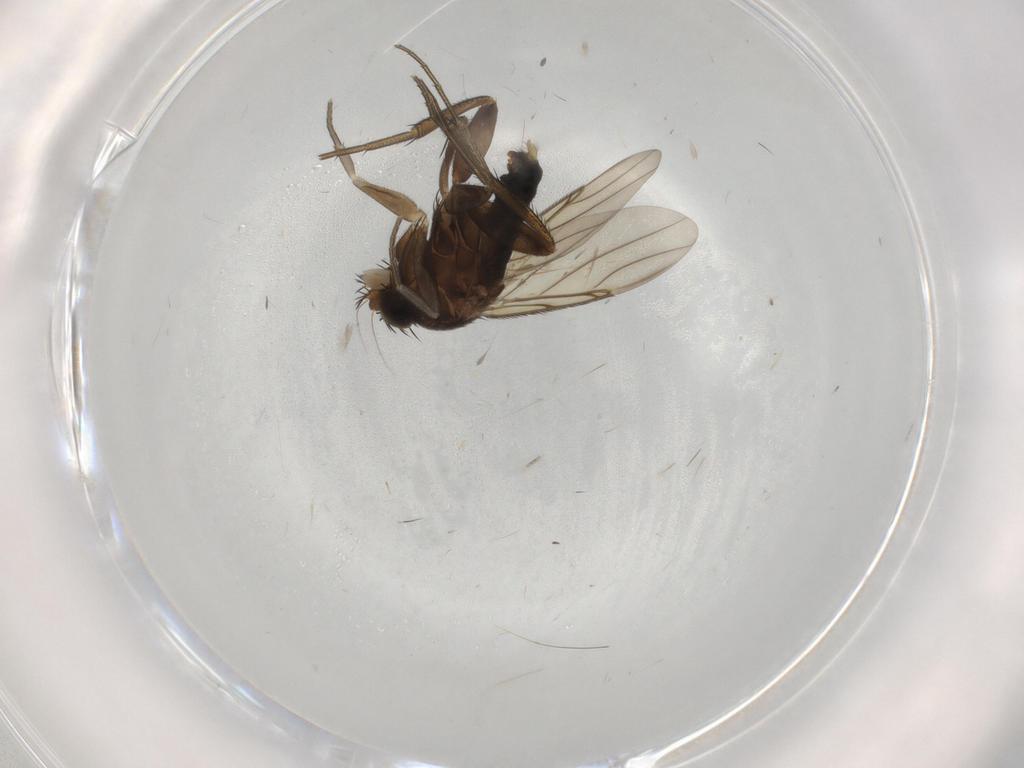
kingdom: Animalia
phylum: Arthropoda
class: Insecta
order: Diptera
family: Phoridae
